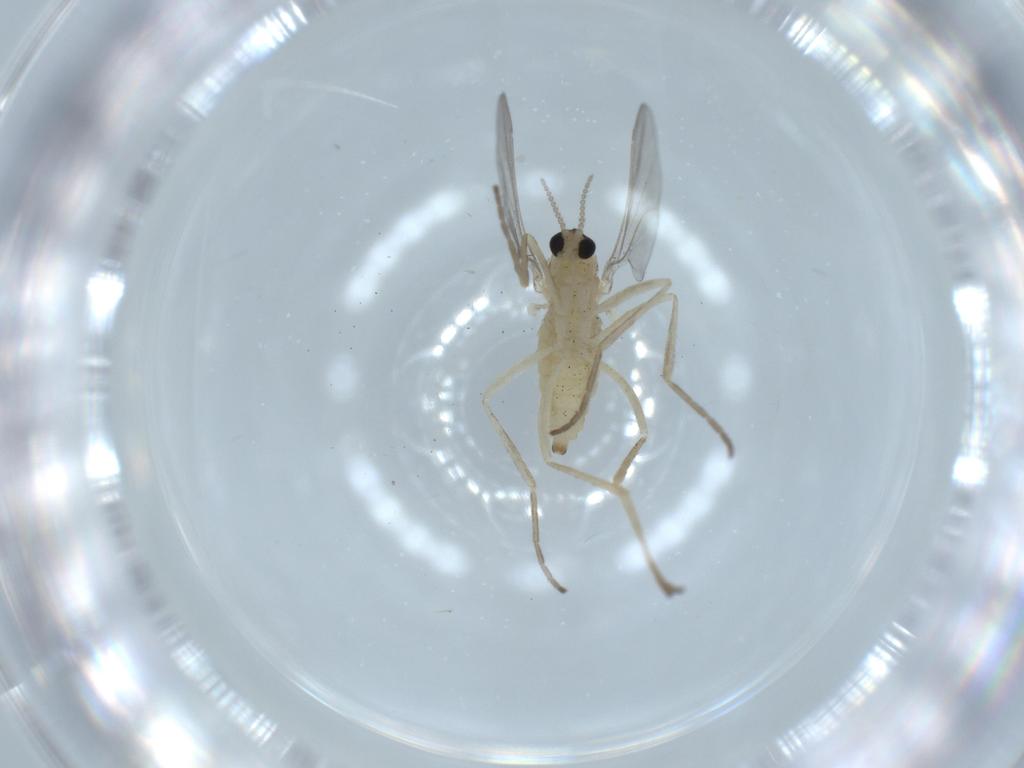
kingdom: Animalia
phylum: Arthropoda
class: Insecta
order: Diptera
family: Cecidomyiidae
